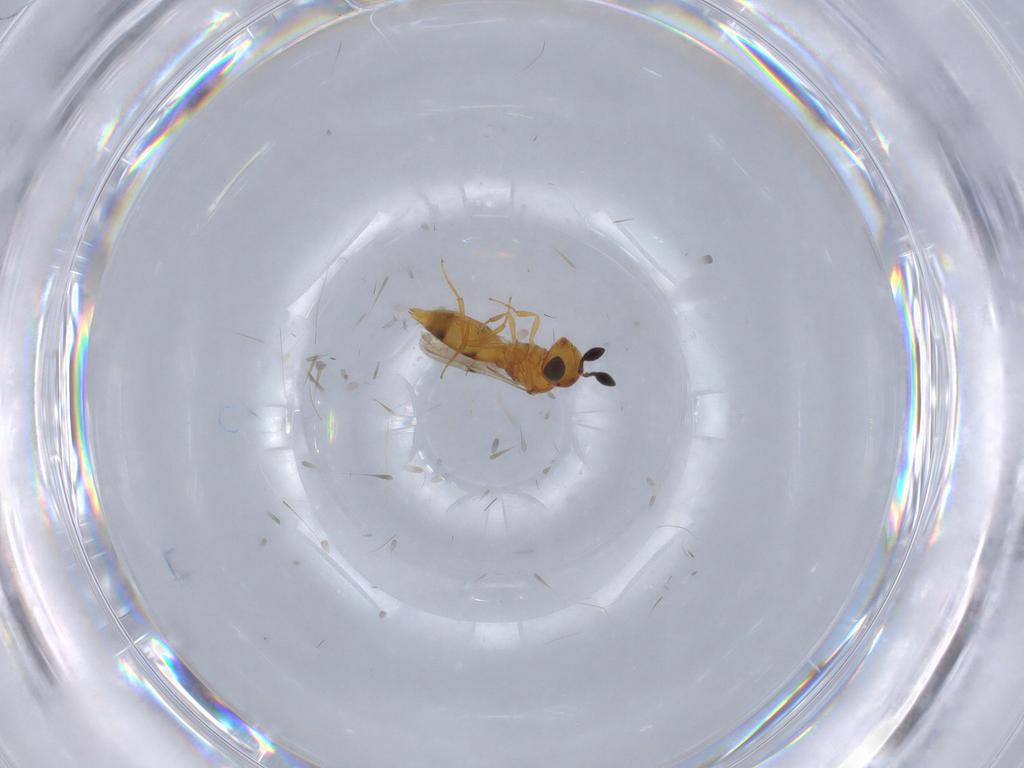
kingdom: Animalia
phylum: Arthropoda
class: Insecta
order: Hymenoptera
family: Scelionidae
